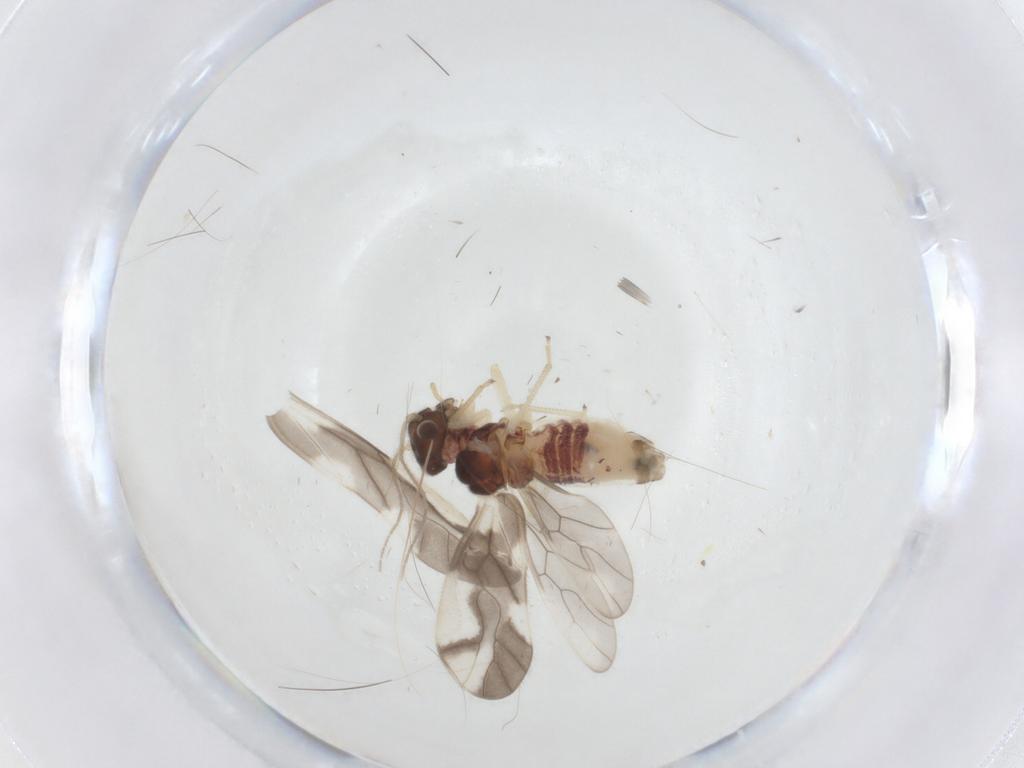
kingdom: Animalia
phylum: Arthropoda
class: Insecta
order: Psocodea
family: Caeciliusidae
